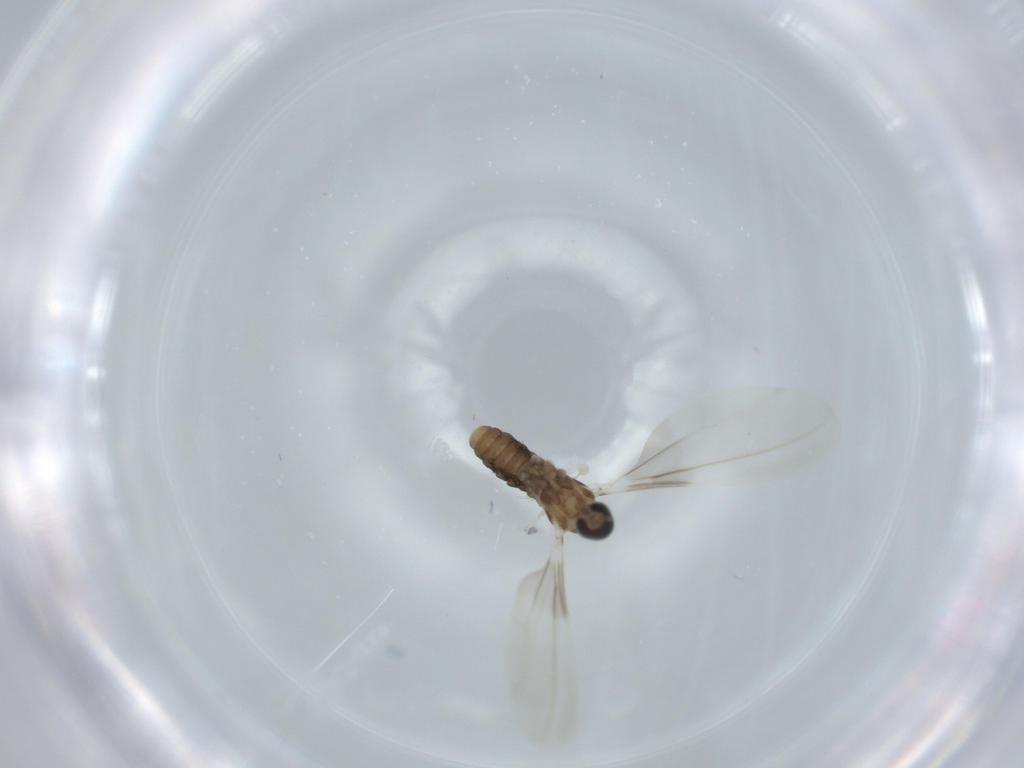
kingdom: Animalia
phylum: Arthropoda
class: Insecta
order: Diptera
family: Cecidomyiidae
